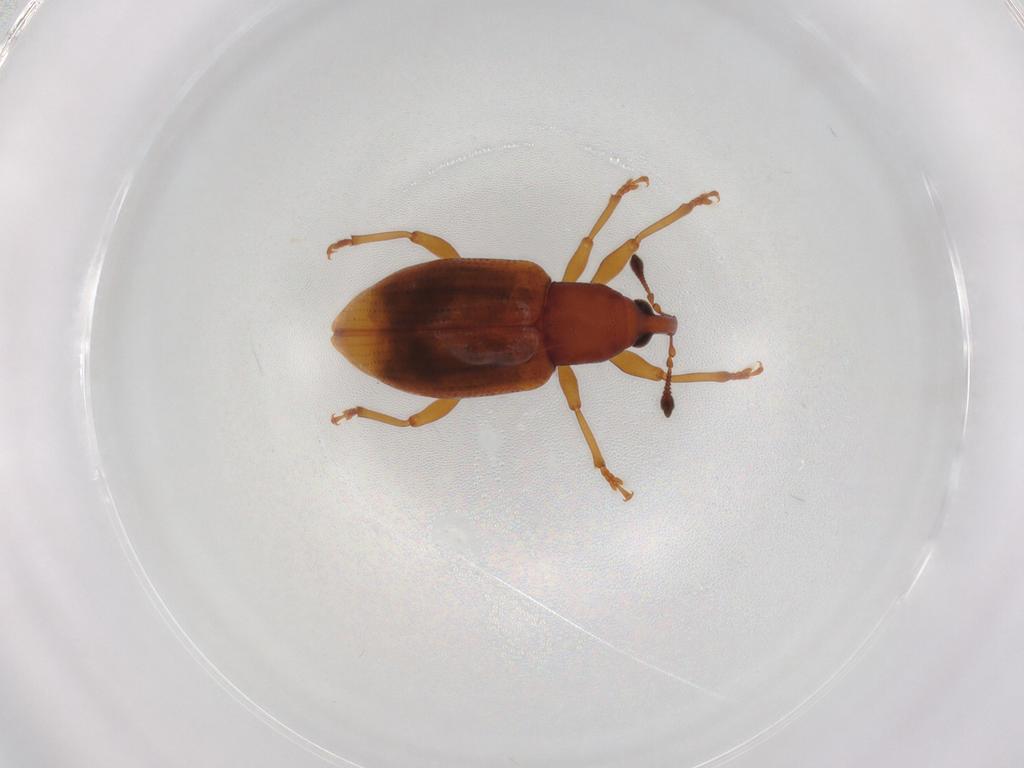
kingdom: Animalia
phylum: Arthropoda
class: Insecta
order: Coleoptera
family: Curculionidae
